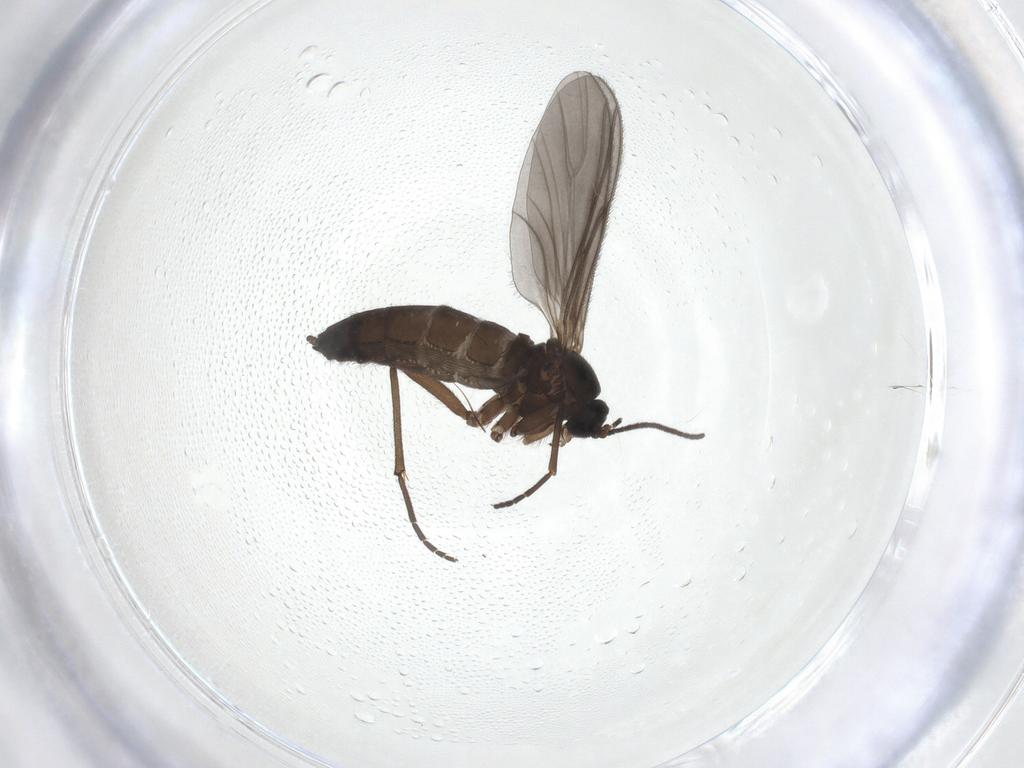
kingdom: Animalia
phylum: Arthropoda
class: Insecta
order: Diptera
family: Sciaridae
